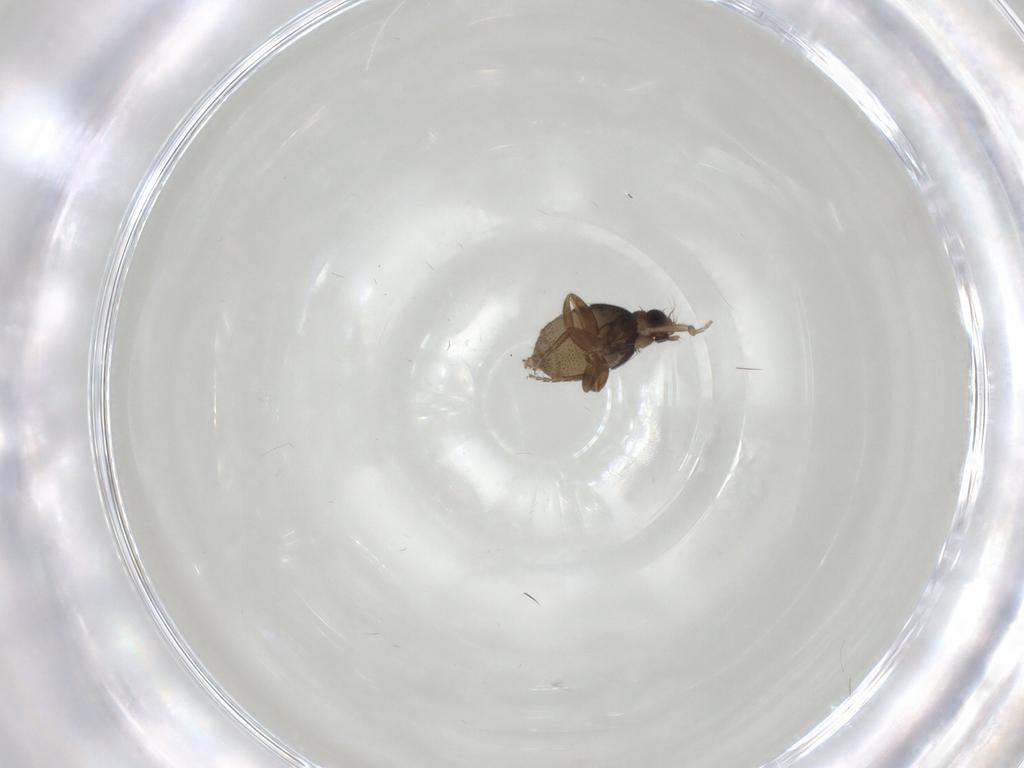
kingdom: Animalia
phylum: Arthropoda
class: Insecta
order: Diptera
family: Phoridae
